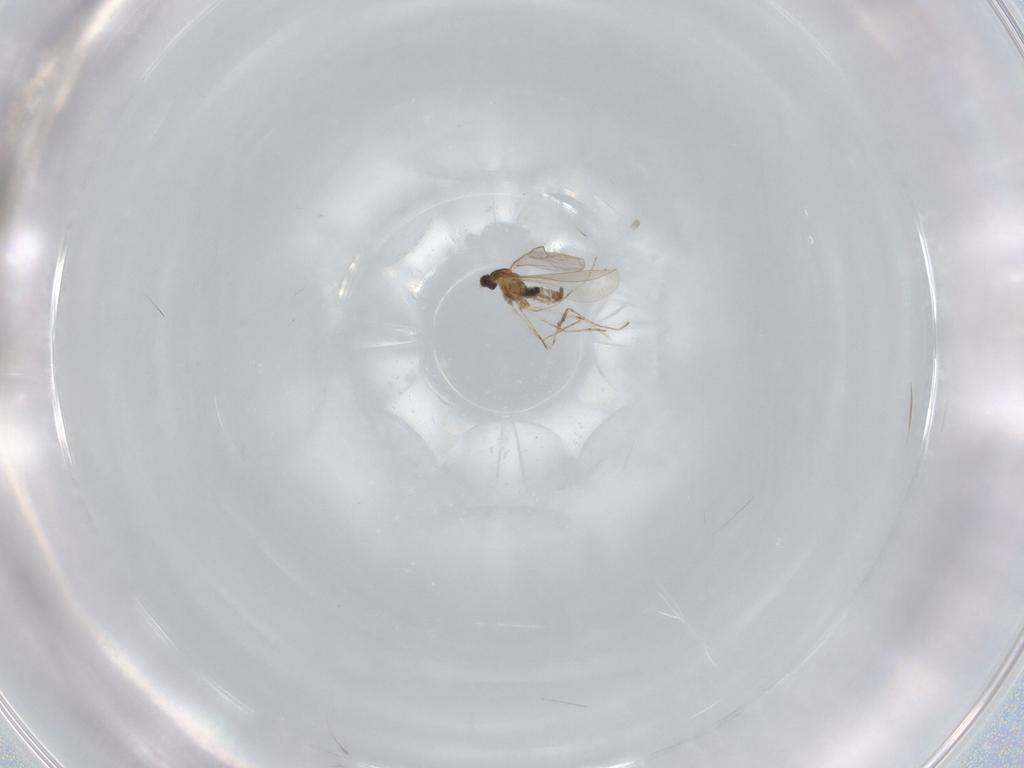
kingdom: Animalia
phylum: Arthropoda
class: Insecta
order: Diptera
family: Cecidomyiidae
